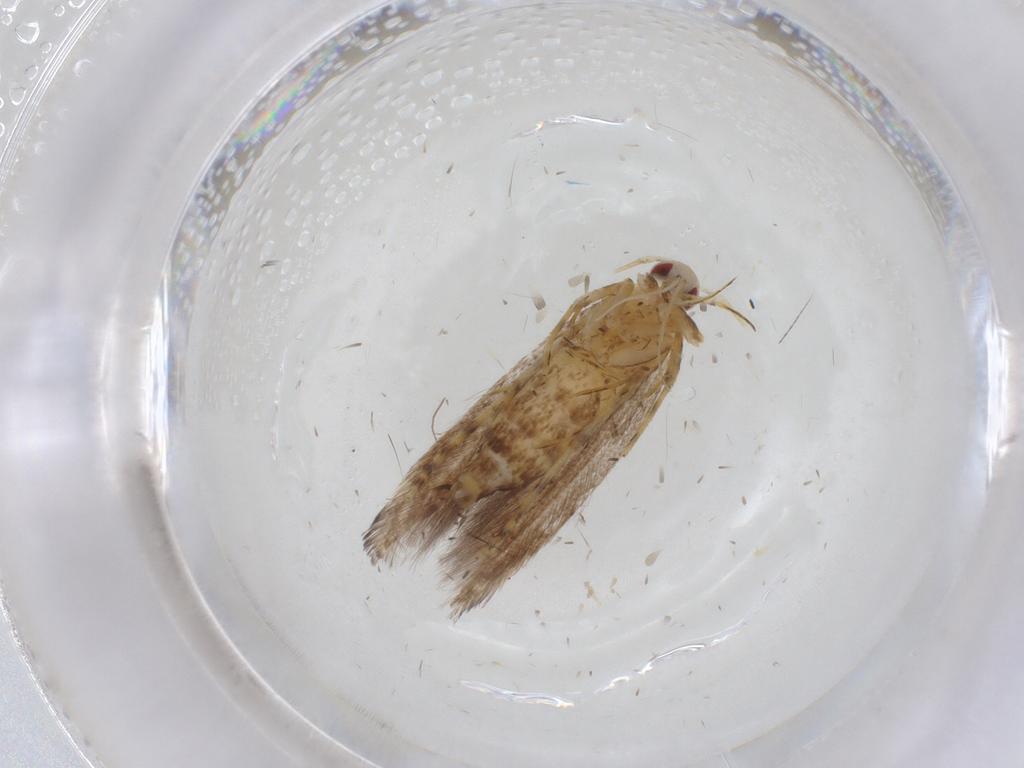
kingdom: Animalia
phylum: Arthropoda
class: Insecta
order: Lepidoptera
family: Cosmopterigidae
